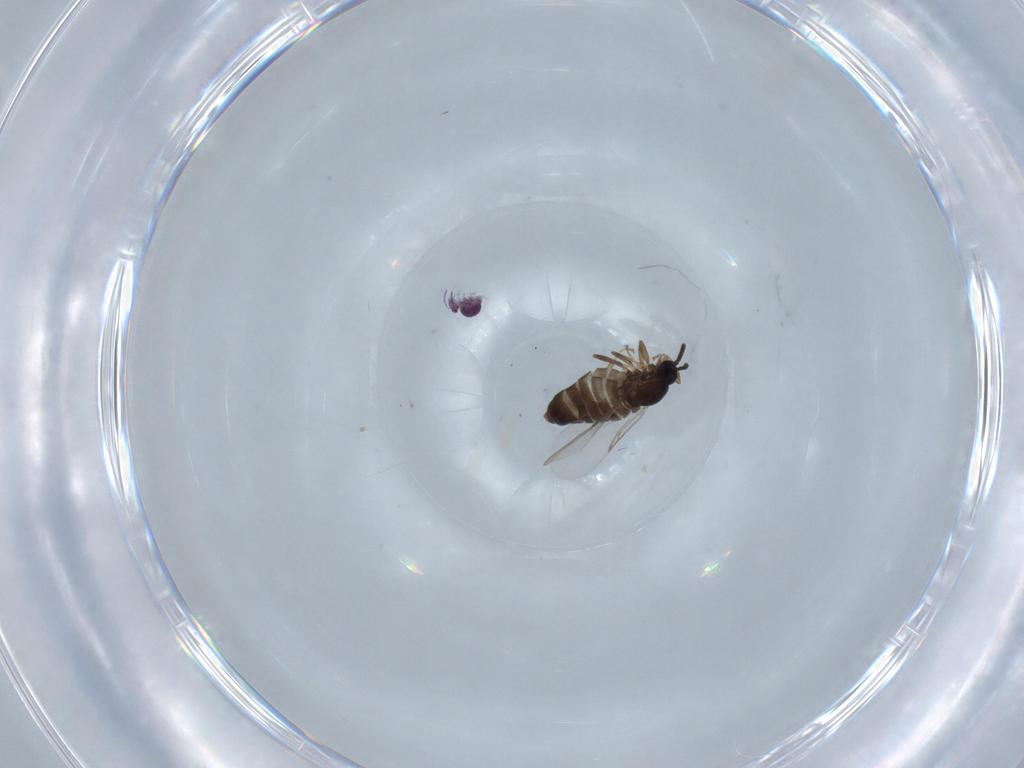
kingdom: Animalia
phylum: Arthropoda
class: Insecta
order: Diptera
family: Scatopsidae
